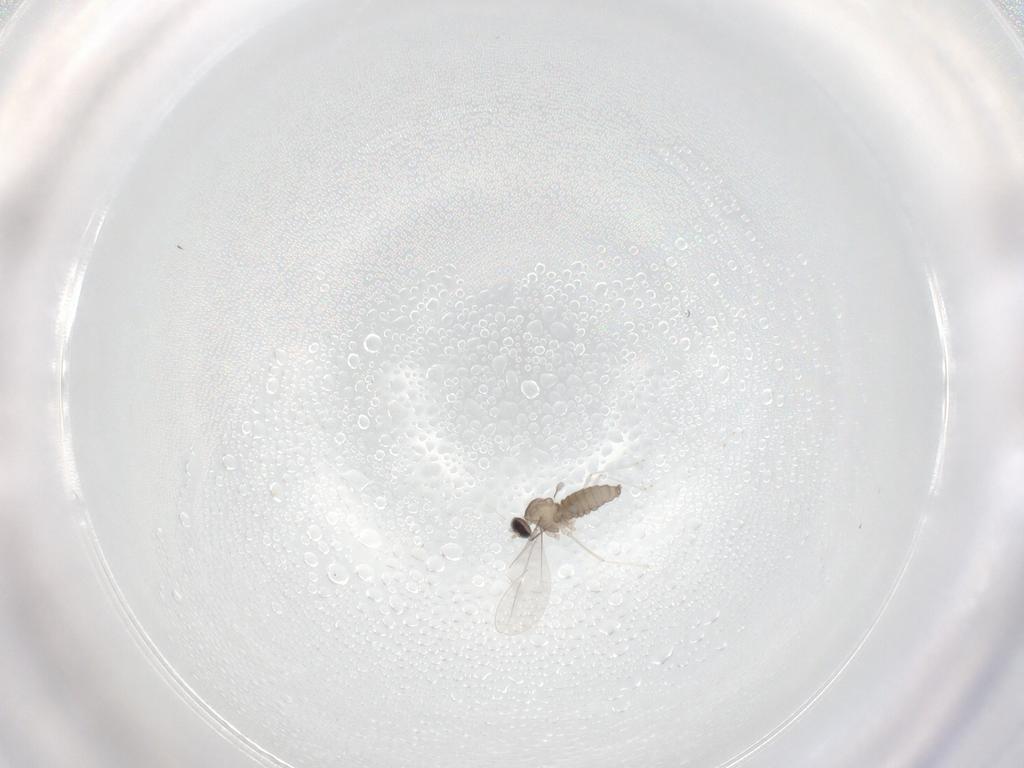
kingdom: Animalia
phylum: Arthropoda
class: Insecta
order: Diptera
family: Cecidomyiidae
